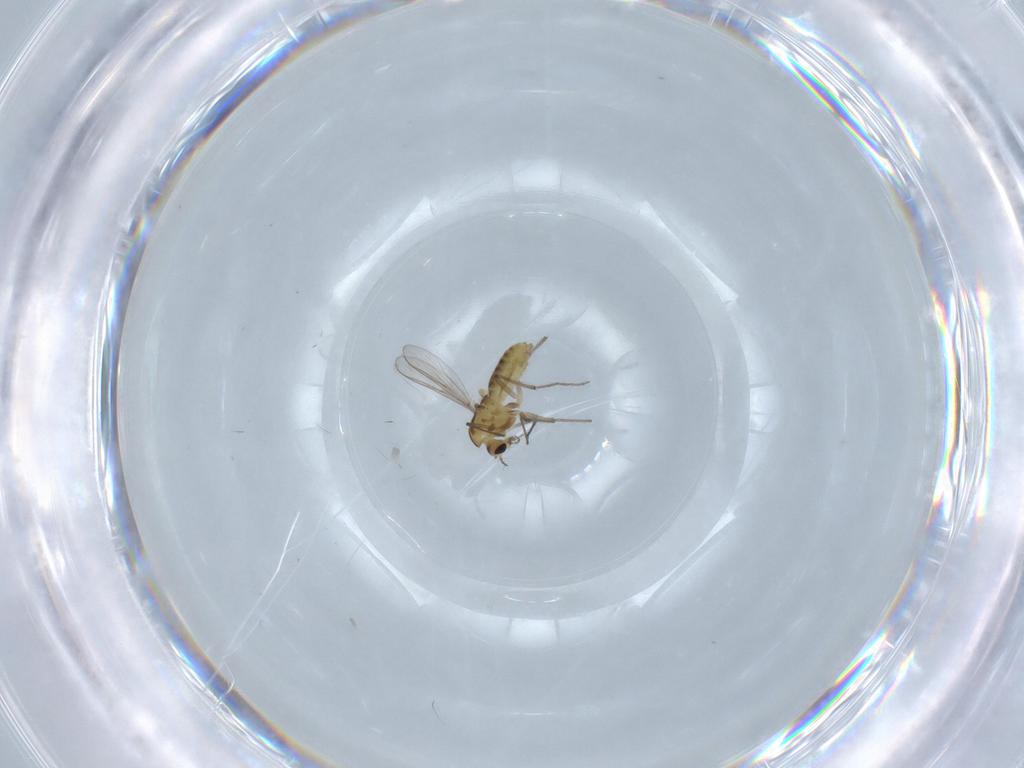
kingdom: Animalia
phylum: Arthropoda
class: Insecta
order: Diptera
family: Chironomidae
